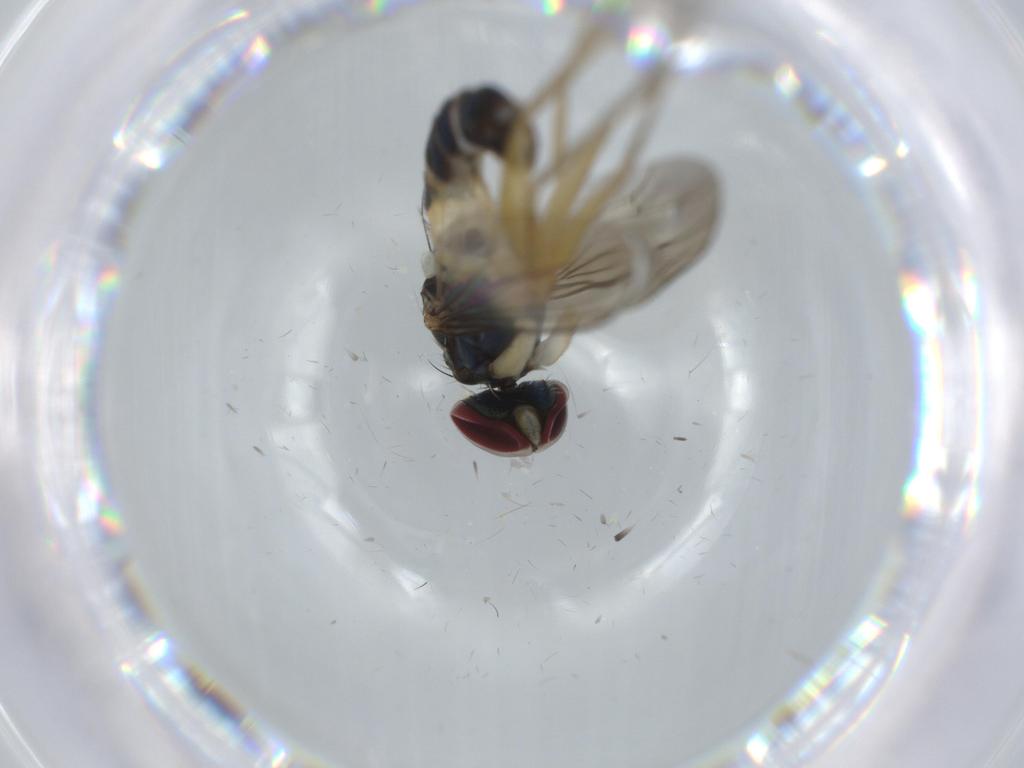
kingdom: Animalia
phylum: Arthropoda
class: Insecta
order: Diptera
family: Dolichopodidae
